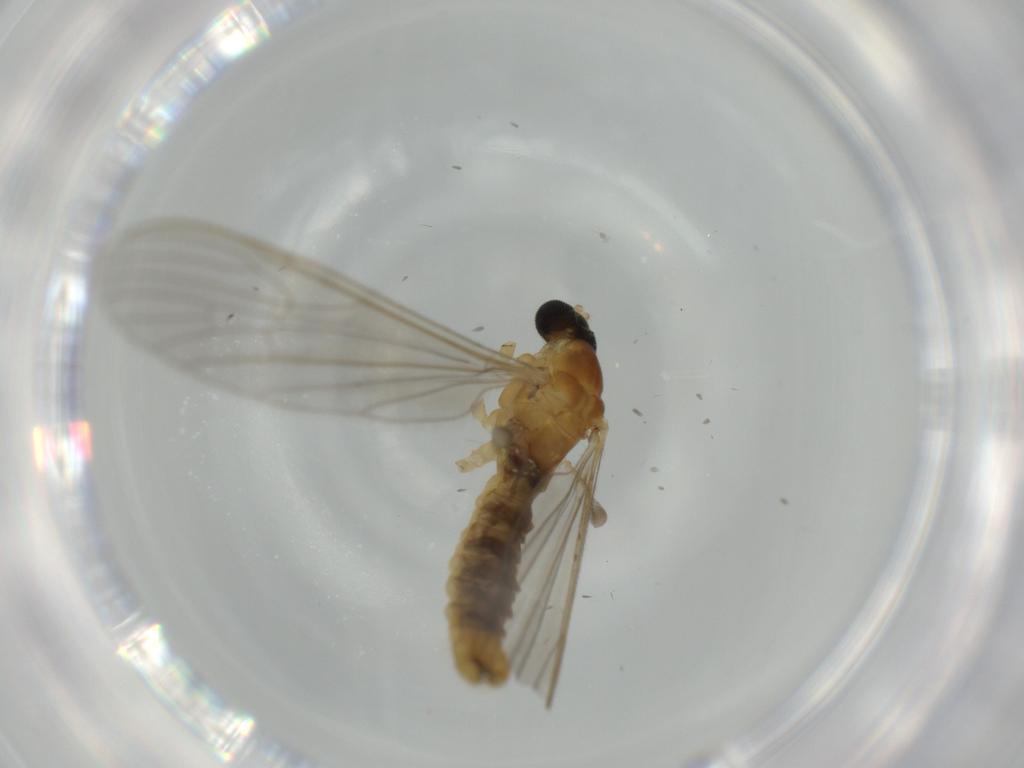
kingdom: Animalia
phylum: Arthropoda
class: Insecta
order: Diptera
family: Limoniidae
